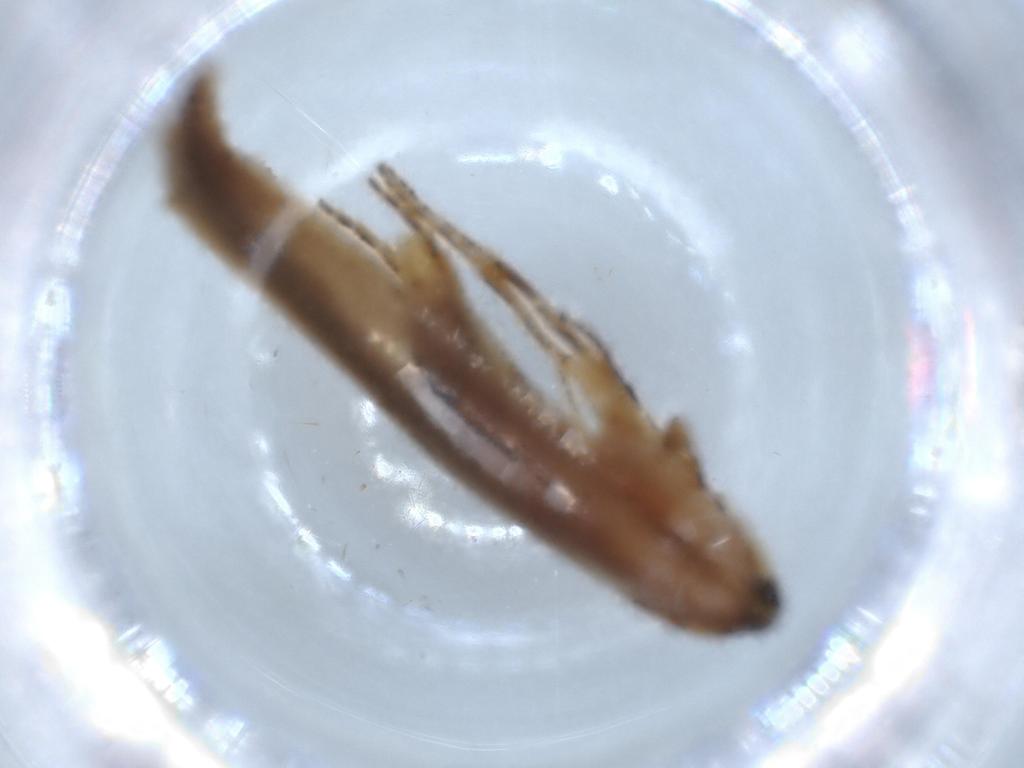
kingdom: Animalia
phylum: Arthropoda
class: Insecta
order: Lepidoptera
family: Stathmopodidae
